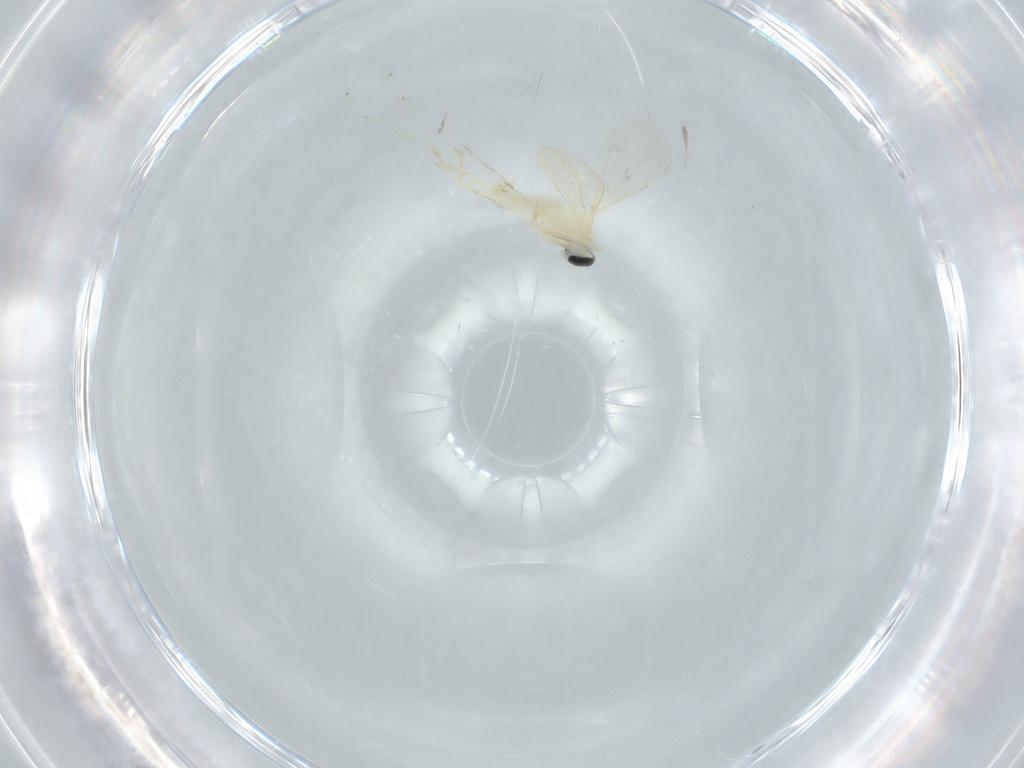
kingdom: Animalia
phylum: Arthropoda
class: Insecta
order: Diptera
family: Cecidomyiidae
